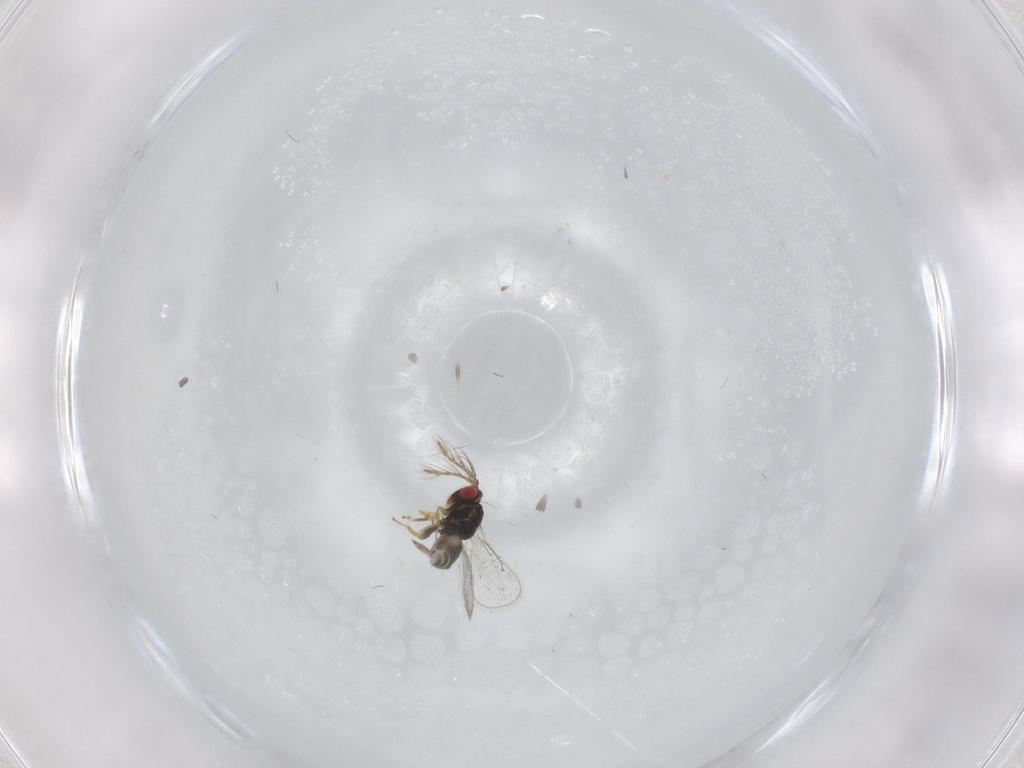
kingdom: Animalia
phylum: Arthropoda
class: Insecta
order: Hymenoptera
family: Eulophidae
